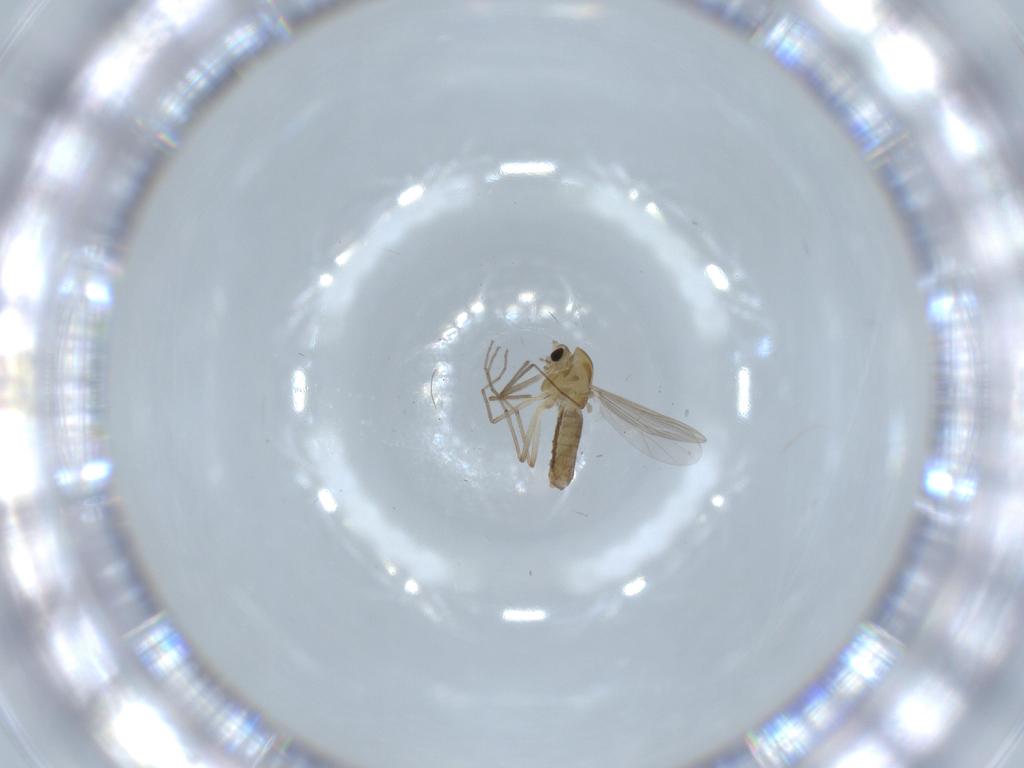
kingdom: Animalia
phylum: Arthropoda
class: Insecta
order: Diptera
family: Chironomidae
